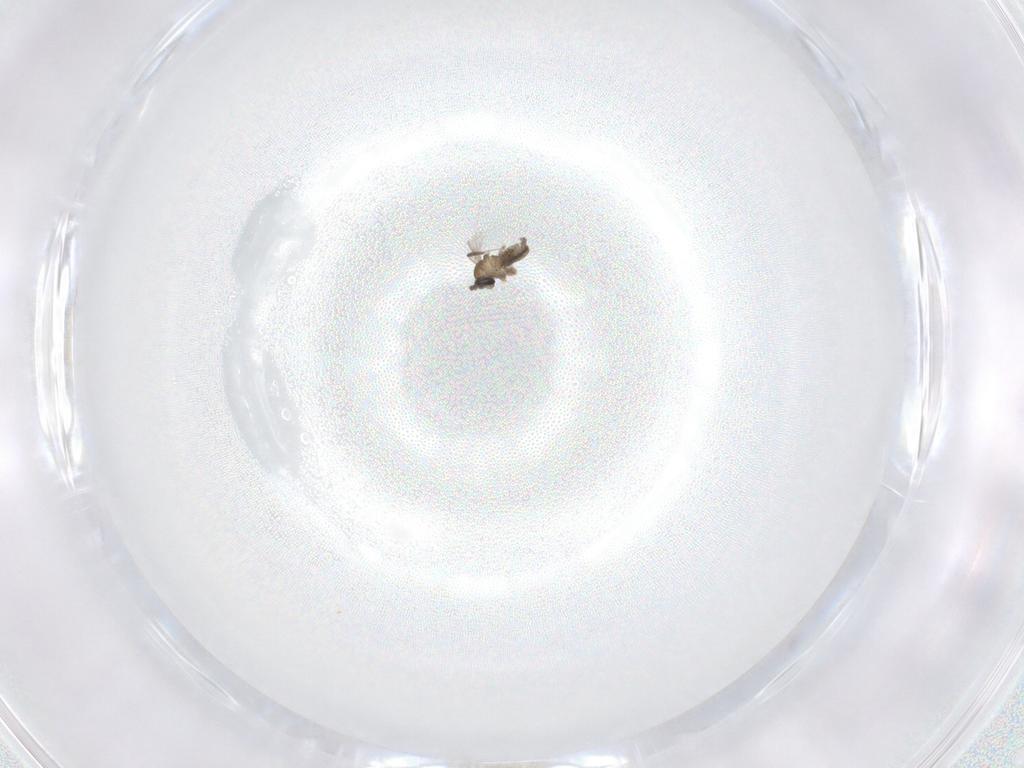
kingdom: Animalia
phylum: Arthropoda
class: Insecta
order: Diptera
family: Cecidomyiidae
